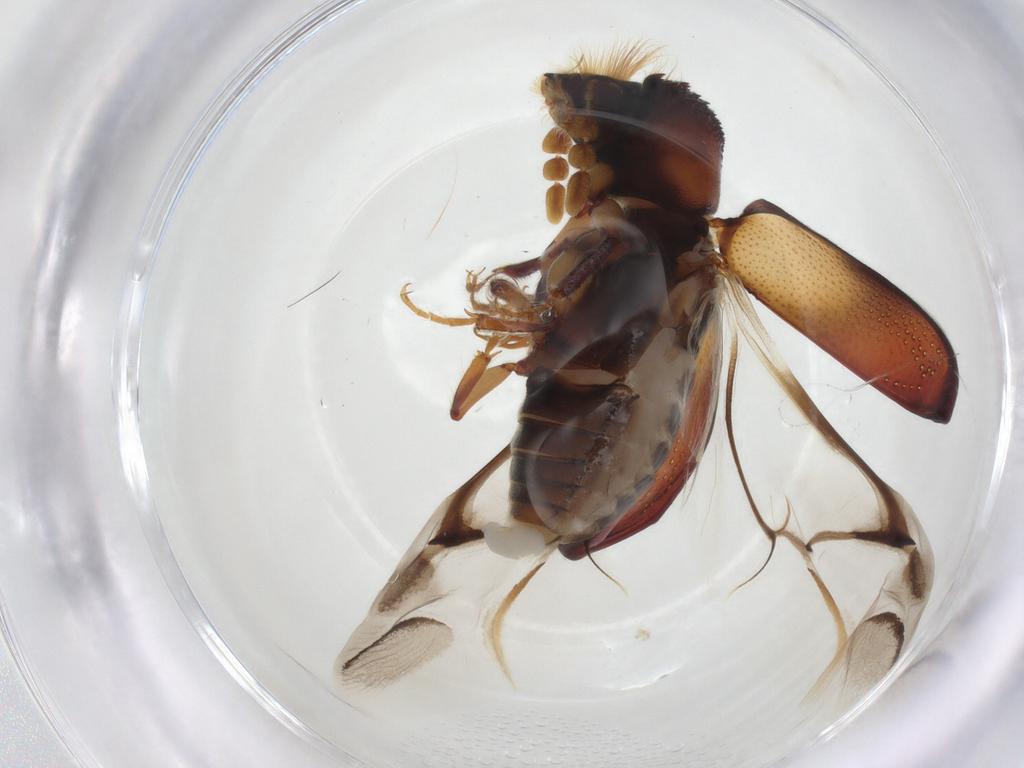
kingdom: Animalia
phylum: Arthropoda
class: Insecta
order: Coleoptera
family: Bostrichidae
